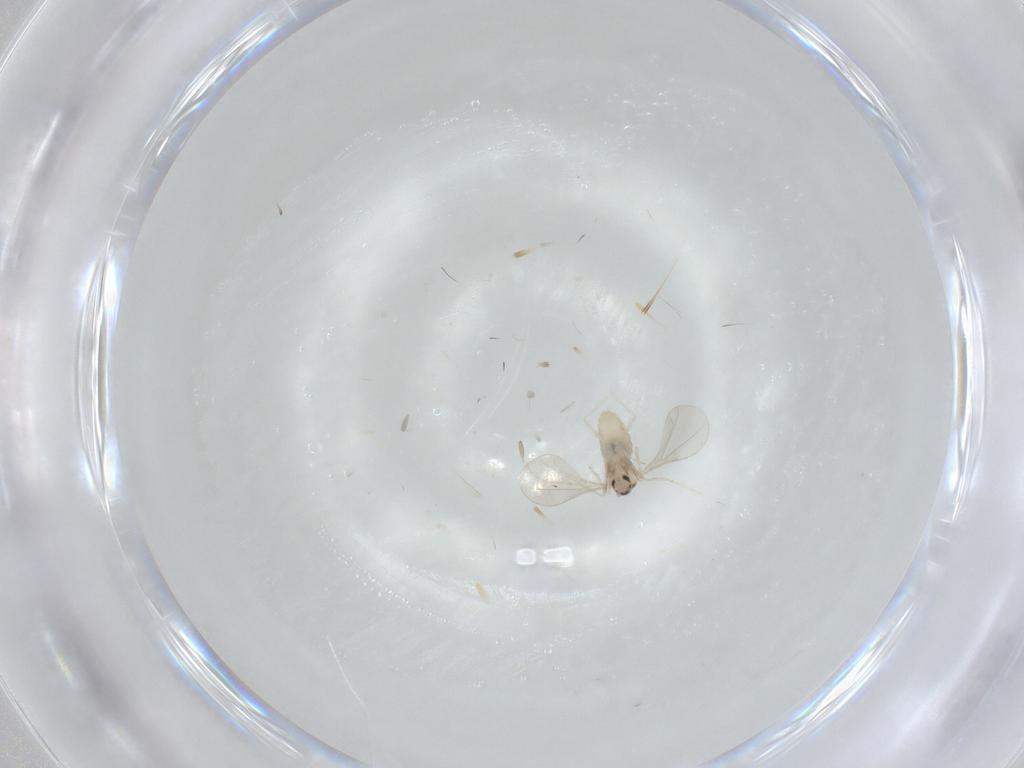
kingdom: Animalia
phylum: Arthropoda
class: Insecta
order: Diptera
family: Cecidomyiidae
